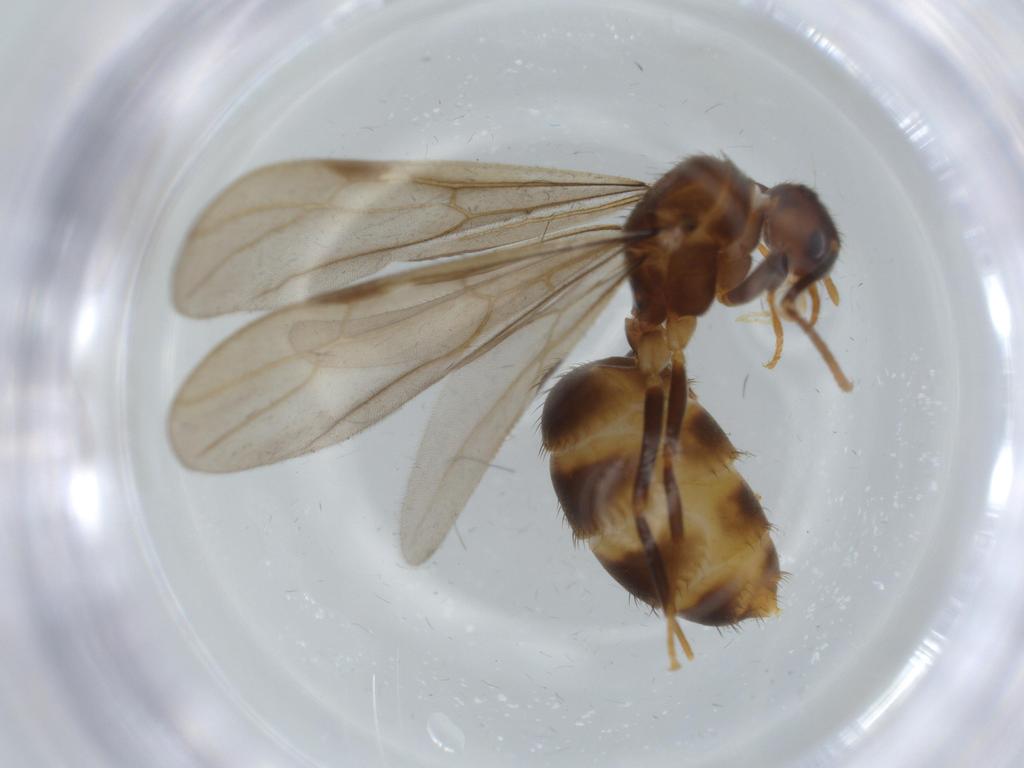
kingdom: Animalia
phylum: Arthropoda
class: Insecta
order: Hymenoptera
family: Formicidae
